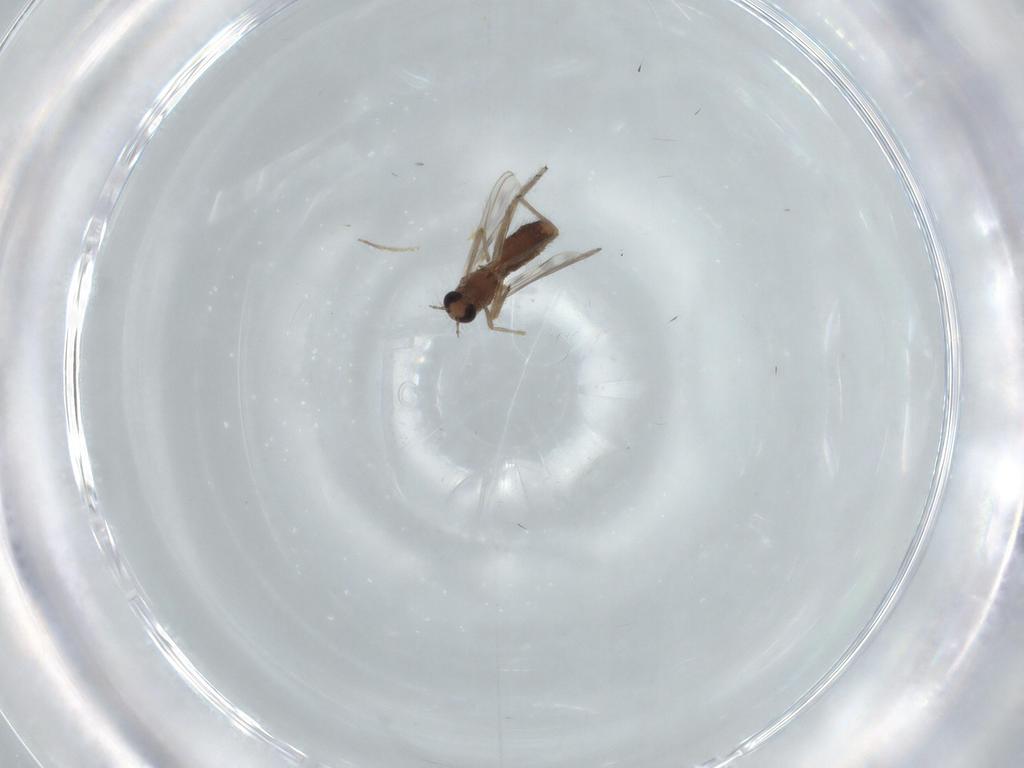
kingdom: Animalia
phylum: Arthropoda
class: Insecta
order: Diptera
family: Chironomidae
